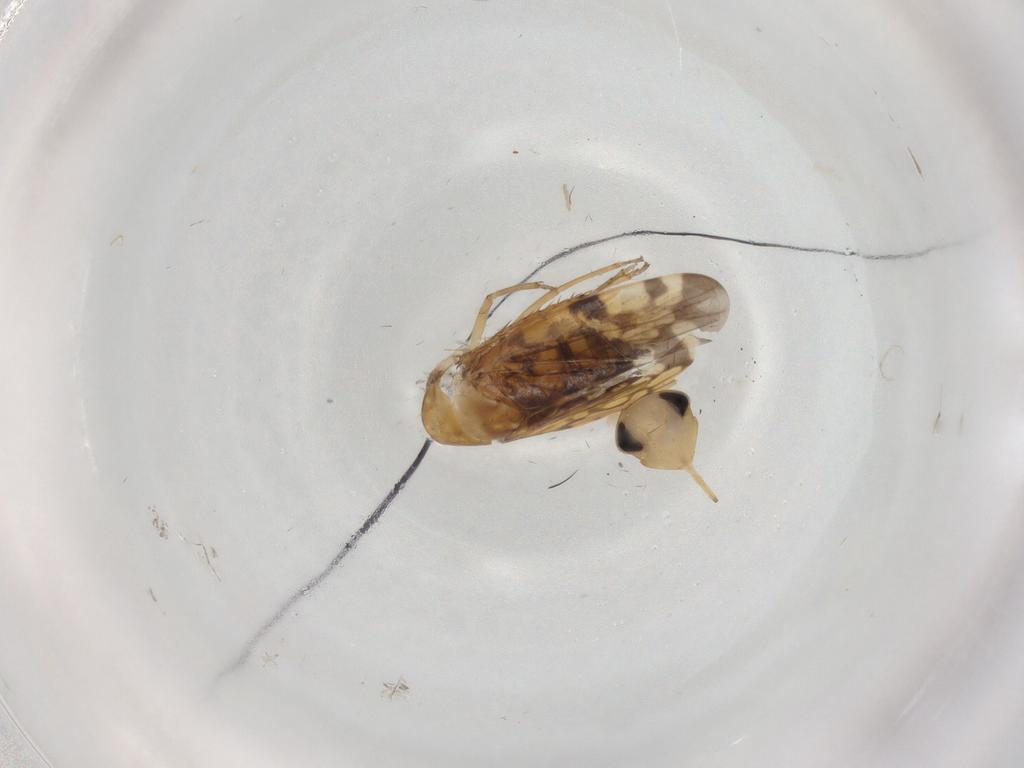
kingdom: Animalia
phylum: Arthropoda
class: Insecta
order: Hemiptera
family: Cicadellidae
